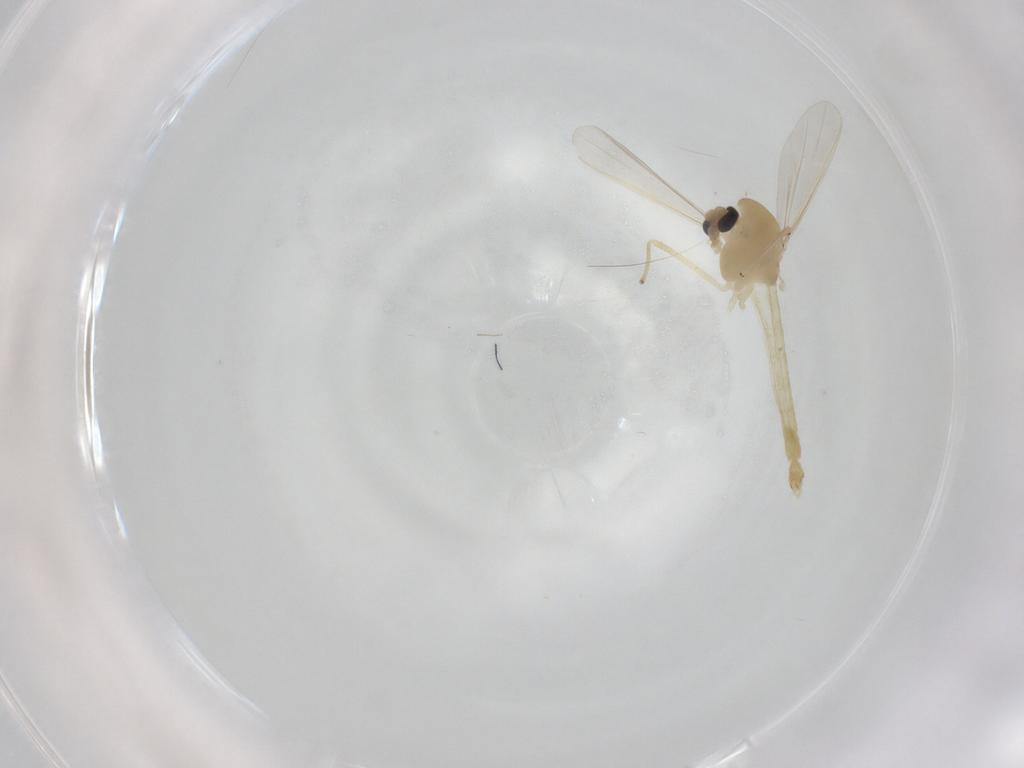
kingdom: Animalia
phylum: Arthropoda
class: Insecta
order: Diptera
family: Chironomidae
